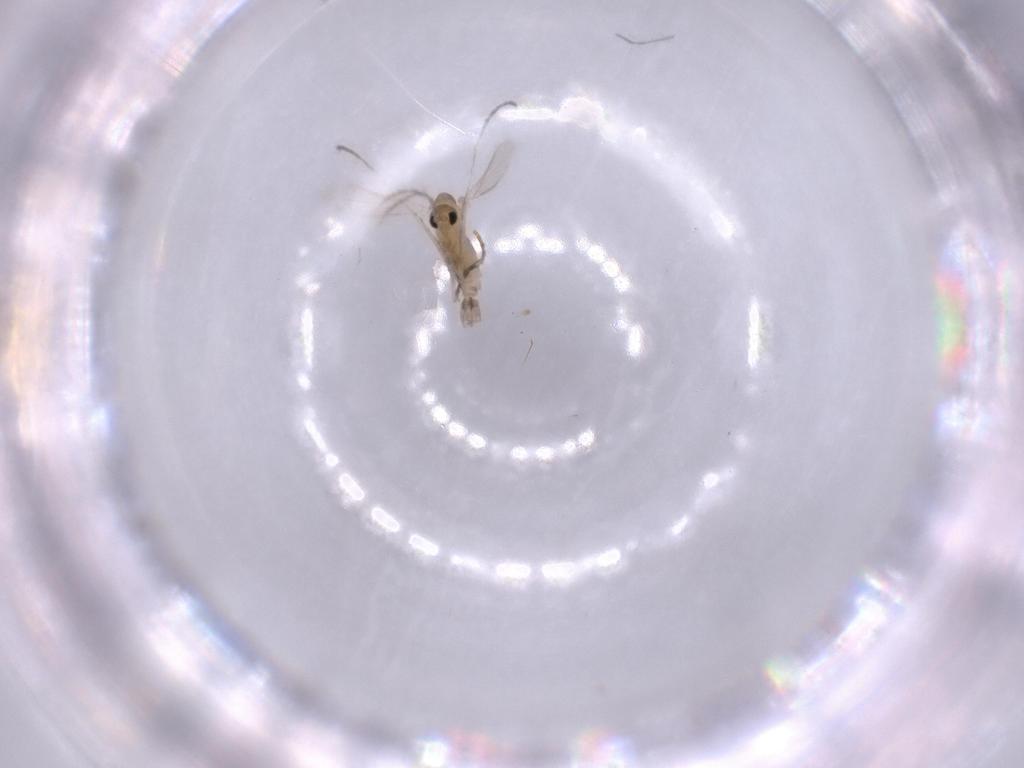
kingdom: Animalia
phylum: Arthropoda
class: Insecta
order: Diptera
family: Psychodidae
